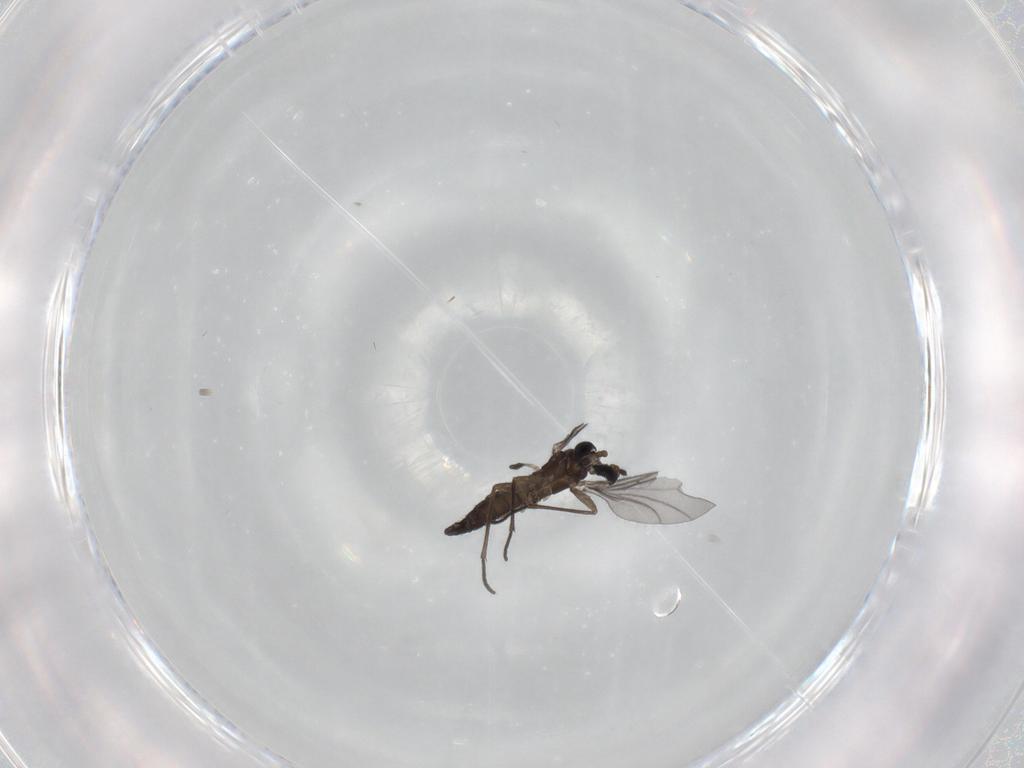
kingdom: Animalia
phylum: Arthropoda
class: Insecta
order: Diptera
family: Sciaridae
